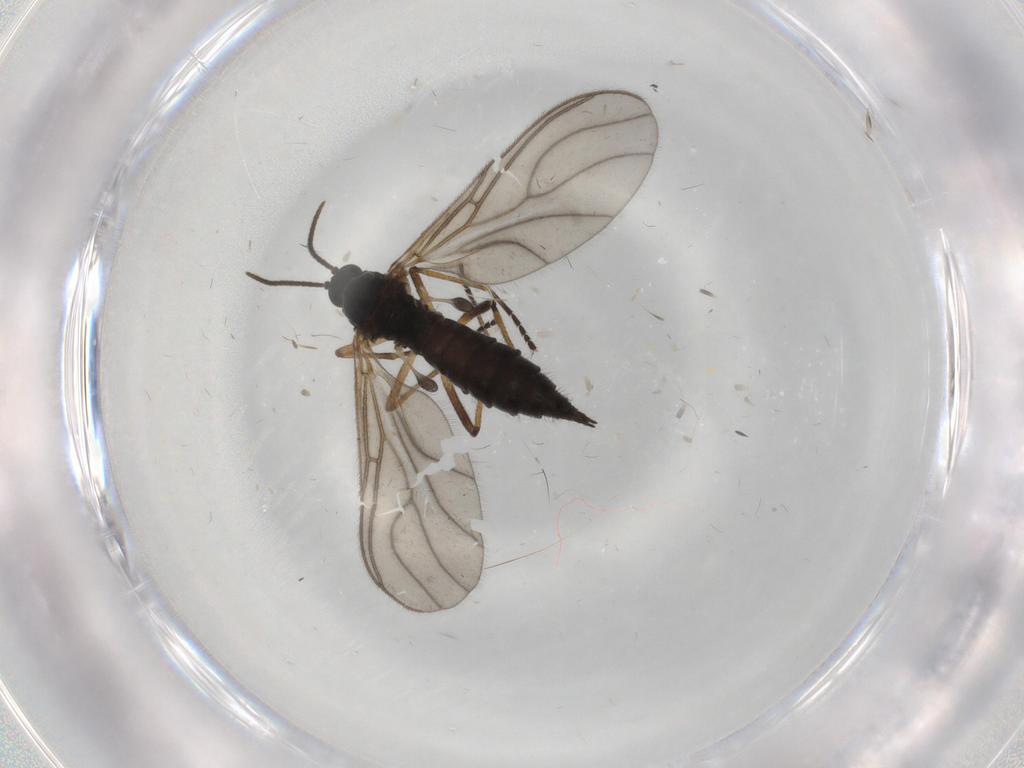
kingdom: Animalia
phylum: Arthropoda
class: Insecta
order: Diptera
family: Sciaridae
